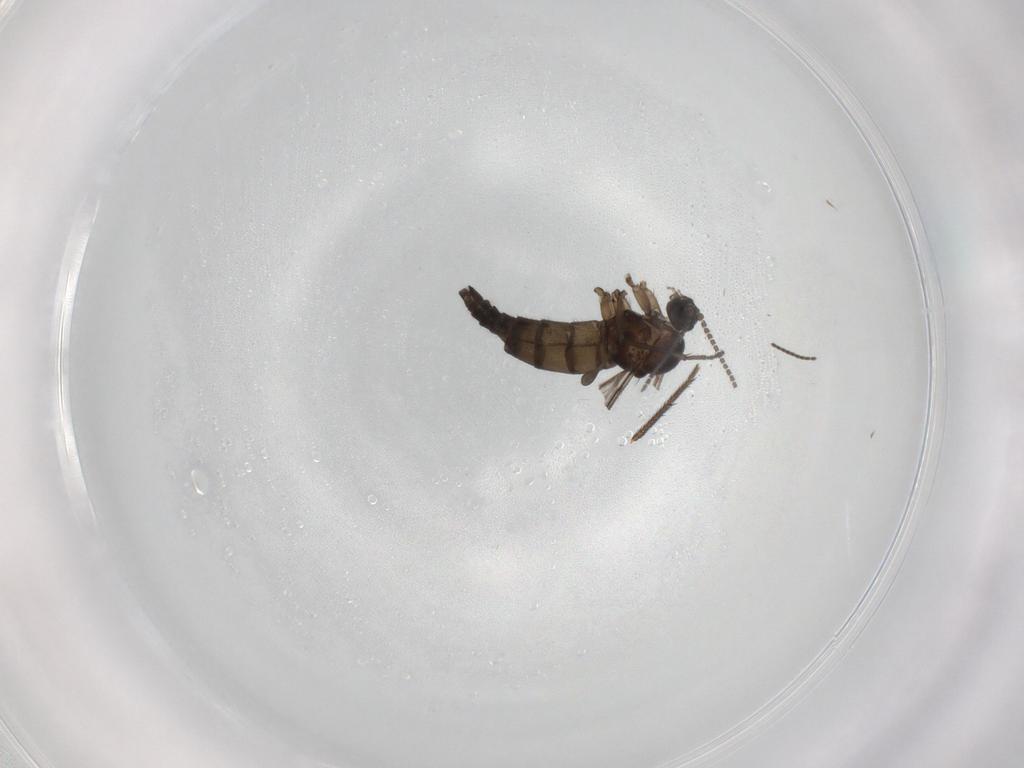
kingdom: Animalia
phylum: Arthropoda
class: Insecta
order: Diptera
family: Sciaridae
